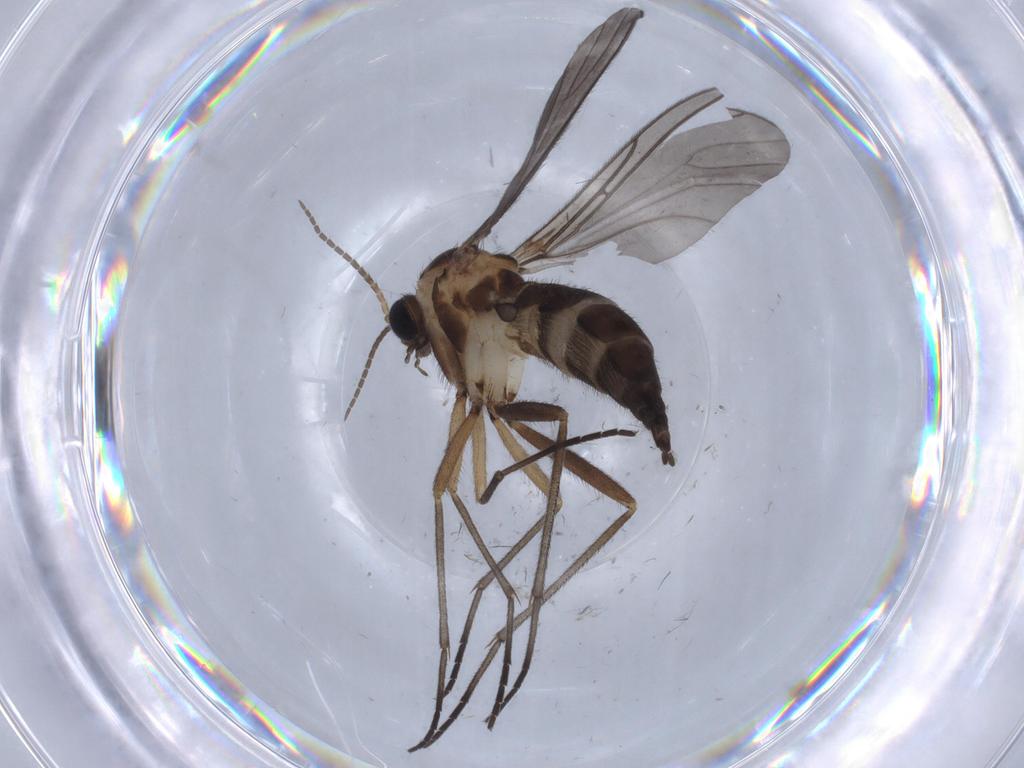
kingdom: Animalia
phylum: Arthropoda
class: Insecta
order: Diptera
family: Sciaridae
